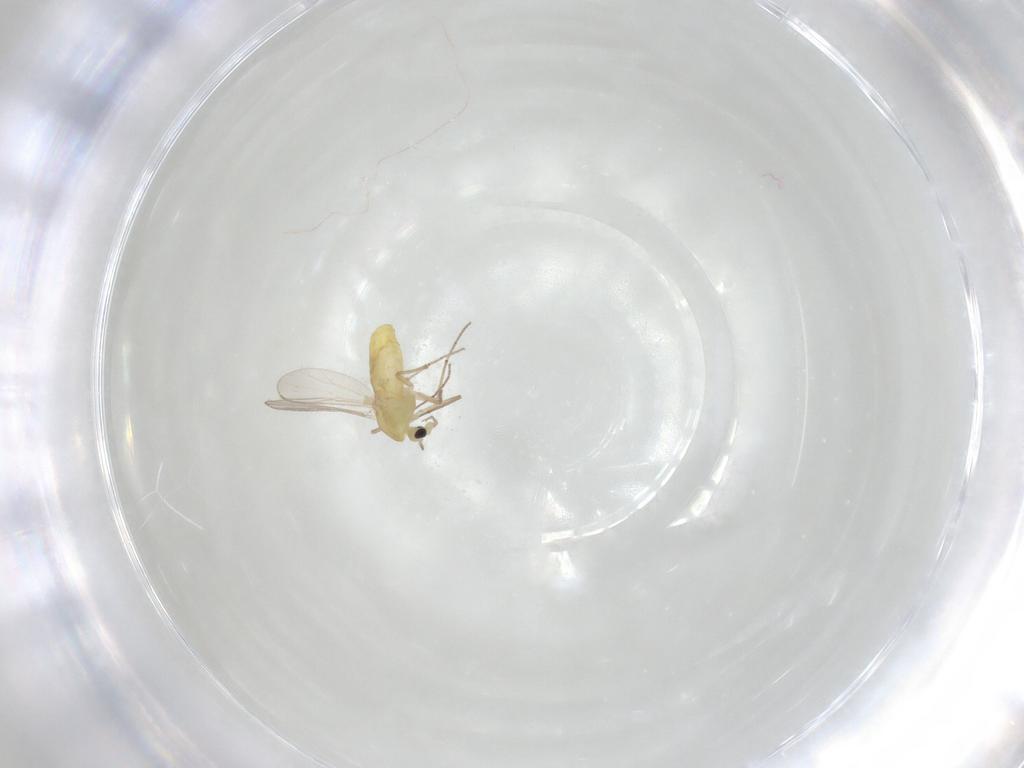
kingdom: Animalia
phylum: Arthropoda
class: Insecta
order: Diptera
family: Chironomidae
